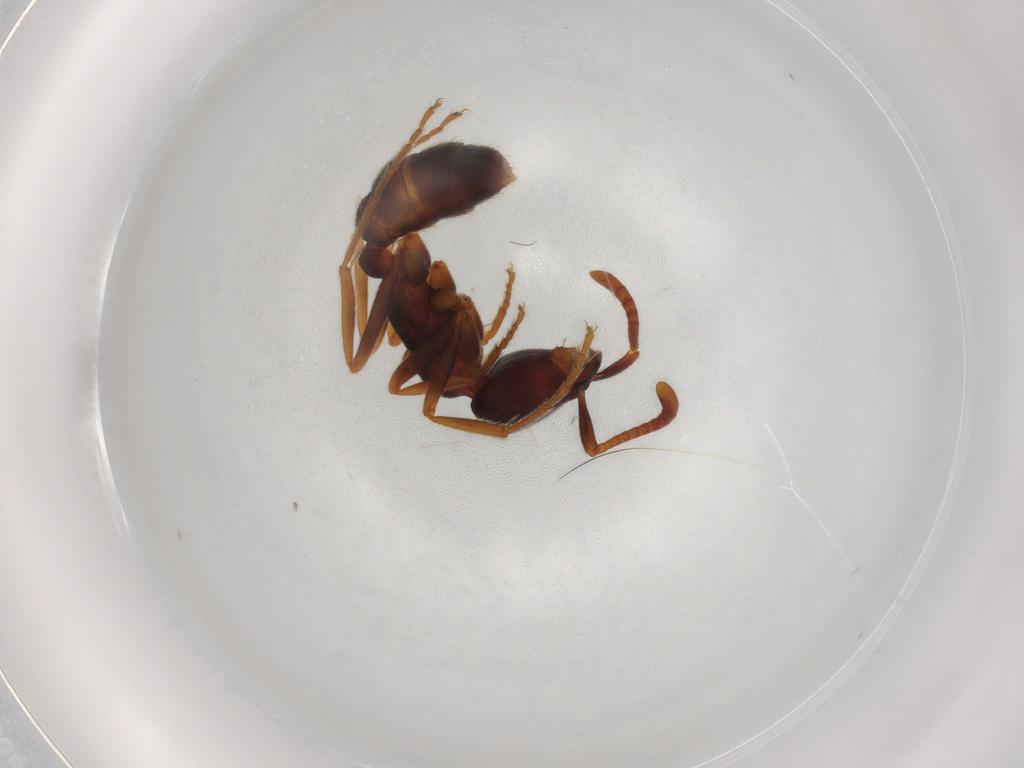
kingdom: Animalia
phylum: Arthropoda
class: Insecta
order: Hymenoptera
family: Formicidae
